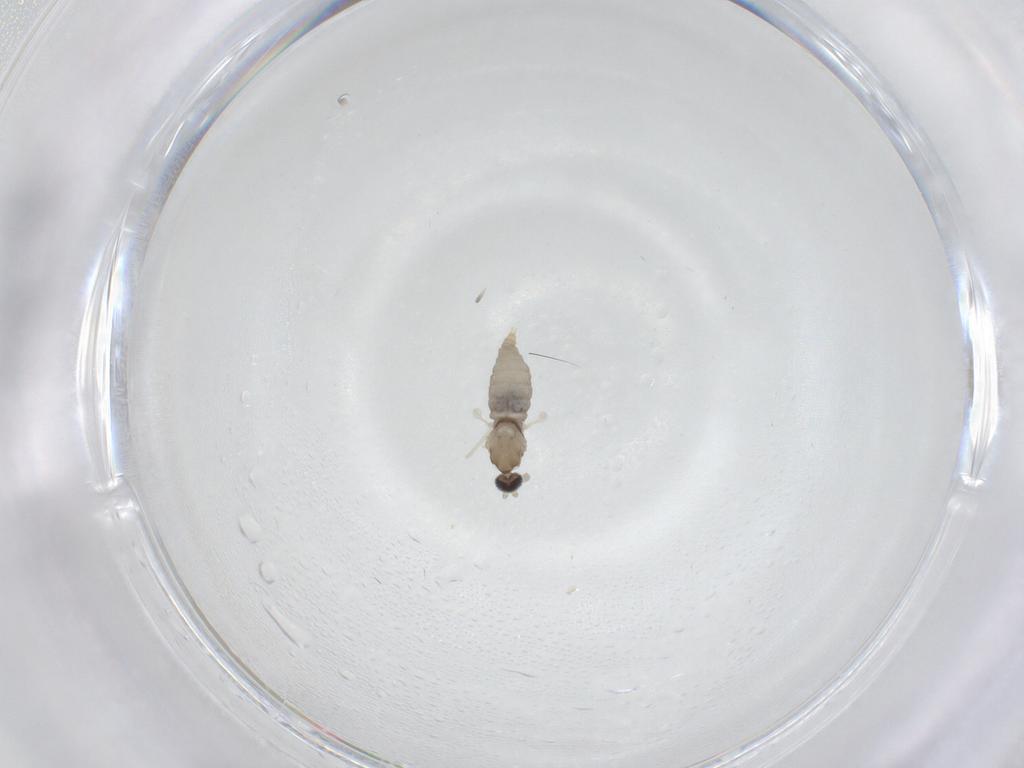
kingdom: Animalia
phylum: Arthropoda
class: Insecta
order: Diptera
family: Cecidomyiidae
